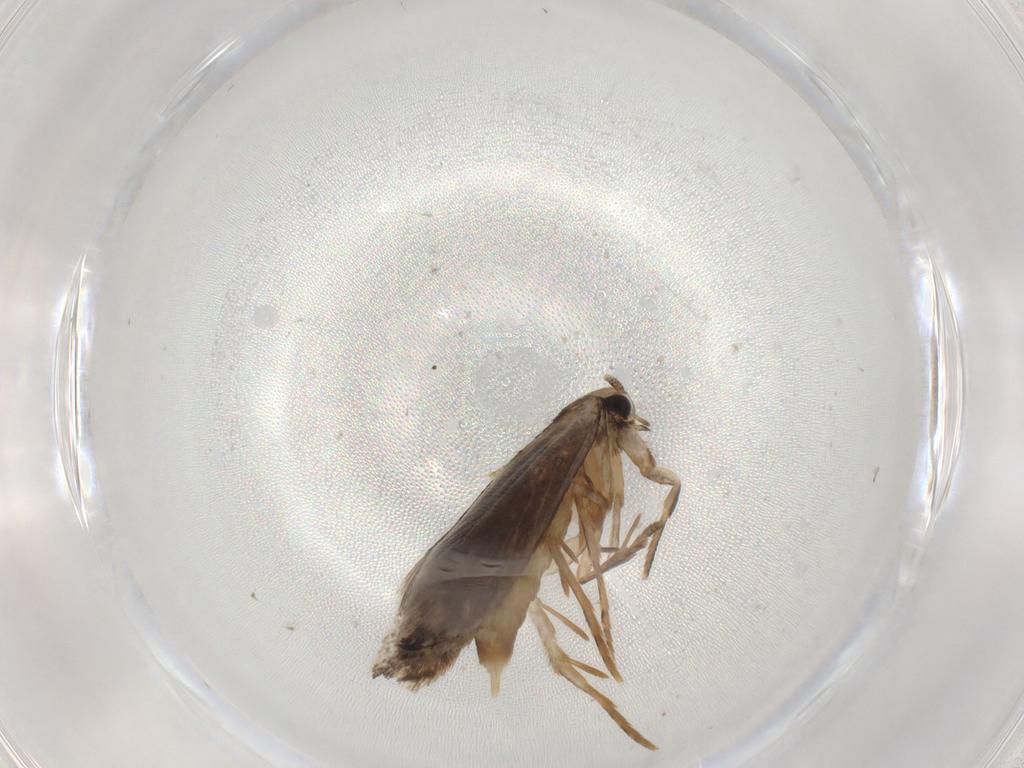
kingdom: Animalia
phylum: Arthropoda
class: Insecta
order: Lepidoptera
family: Tineidae
